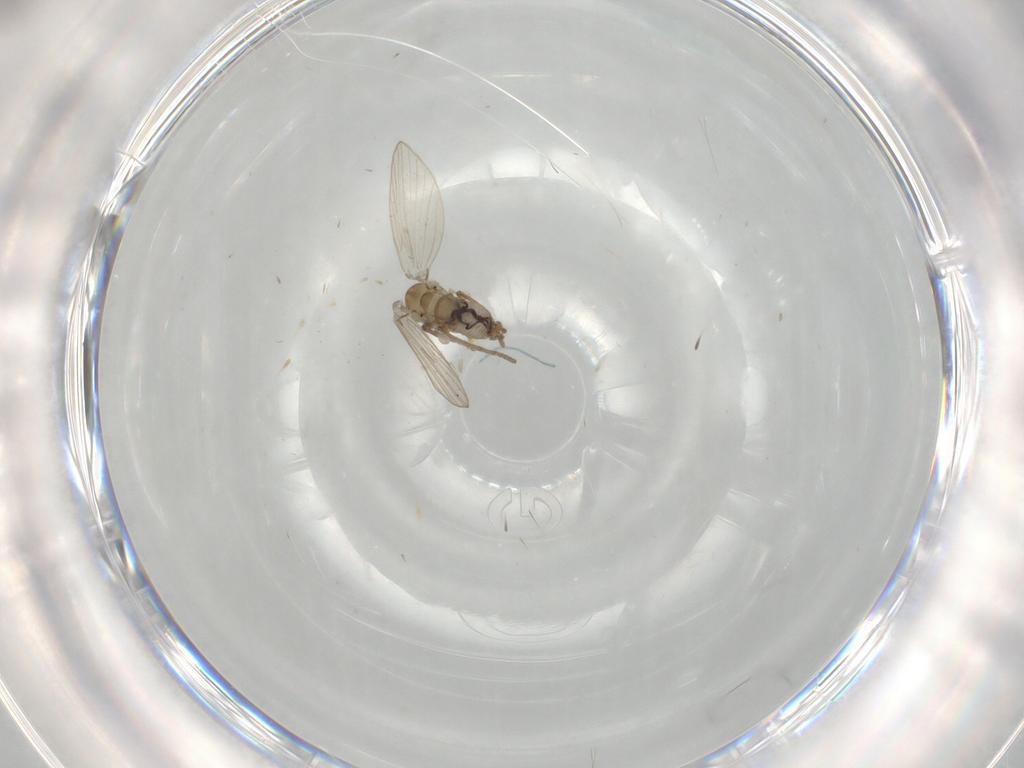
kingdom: Animalia
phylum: Arthropoda
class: Insecta
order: Diptera
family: Psychodidae
